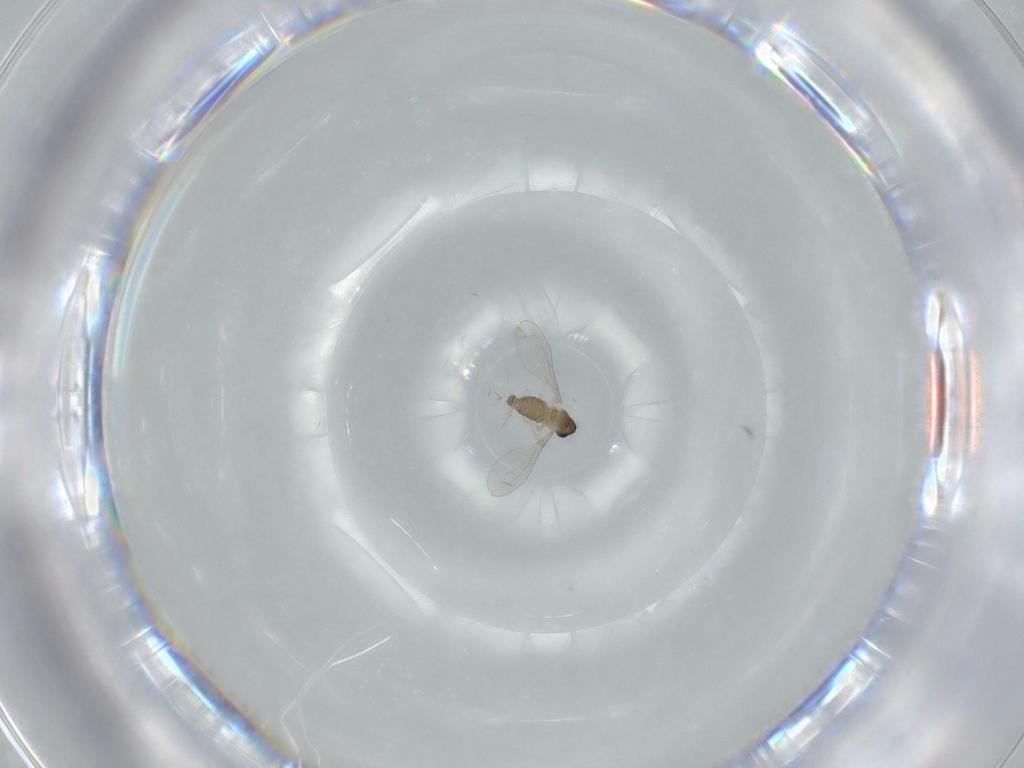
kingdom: Animalia
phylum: Arthropoda
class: Insecta
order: Diptera
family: Cecidomyiidae
